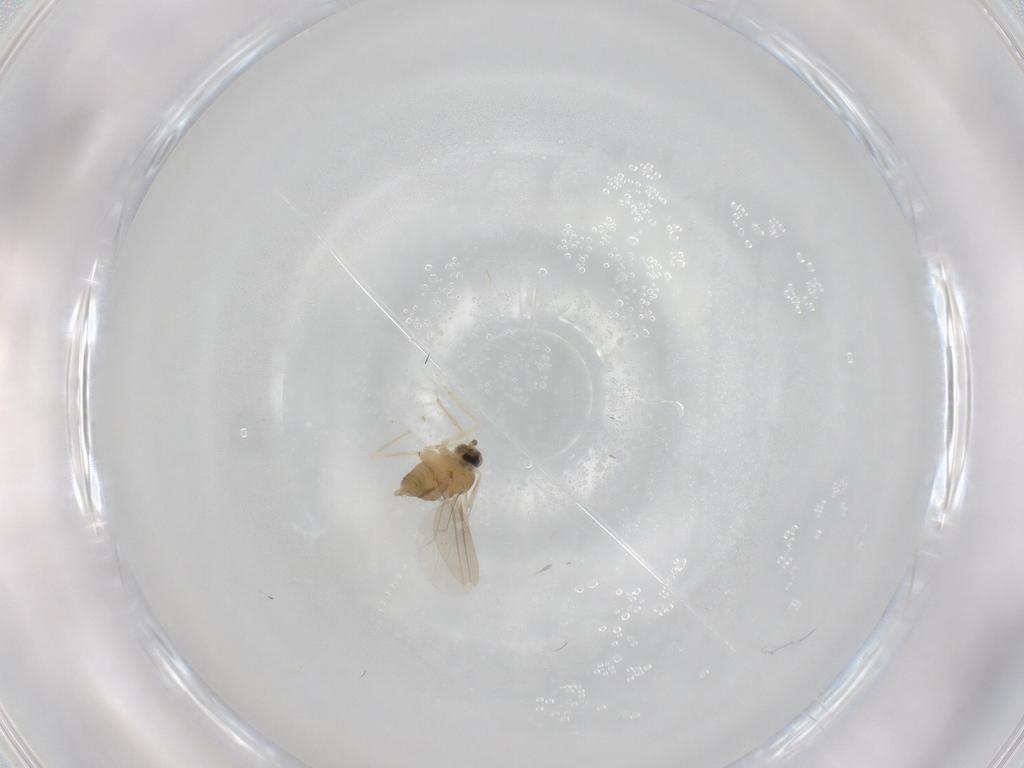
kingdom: Animalia
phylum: Arthropoda
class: Insecta
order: Diptera
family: Cecidomyiidae
